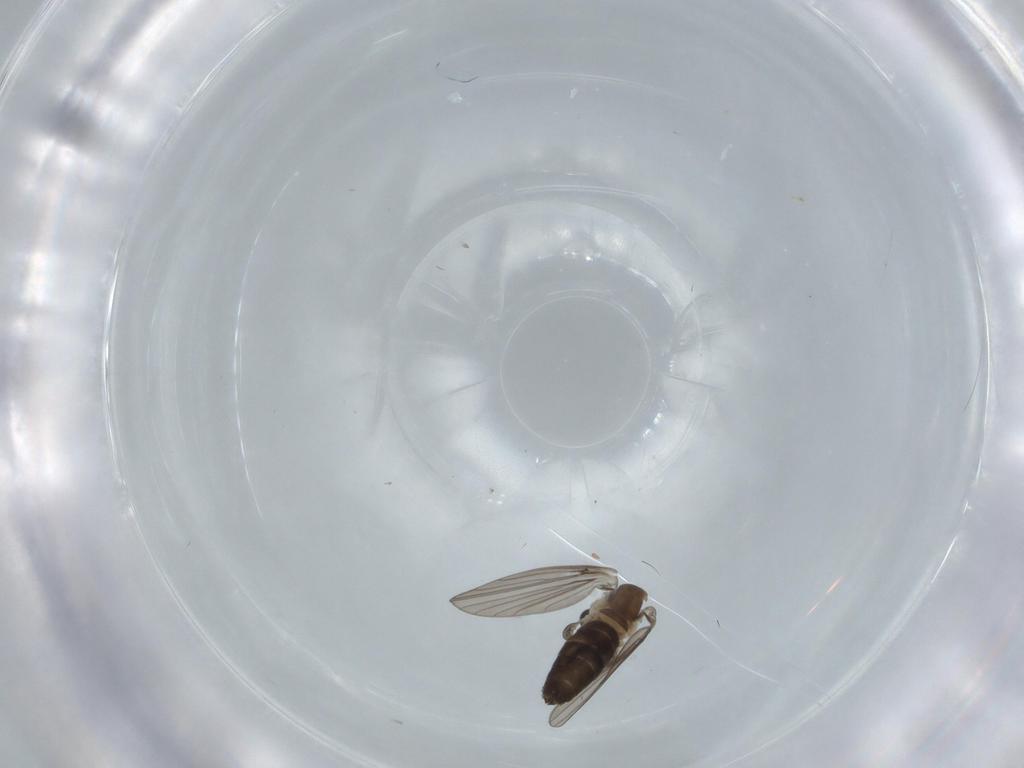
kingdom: Animalia
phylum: Arthropoda
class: Insecta
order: Diptera
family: Psychodidae
